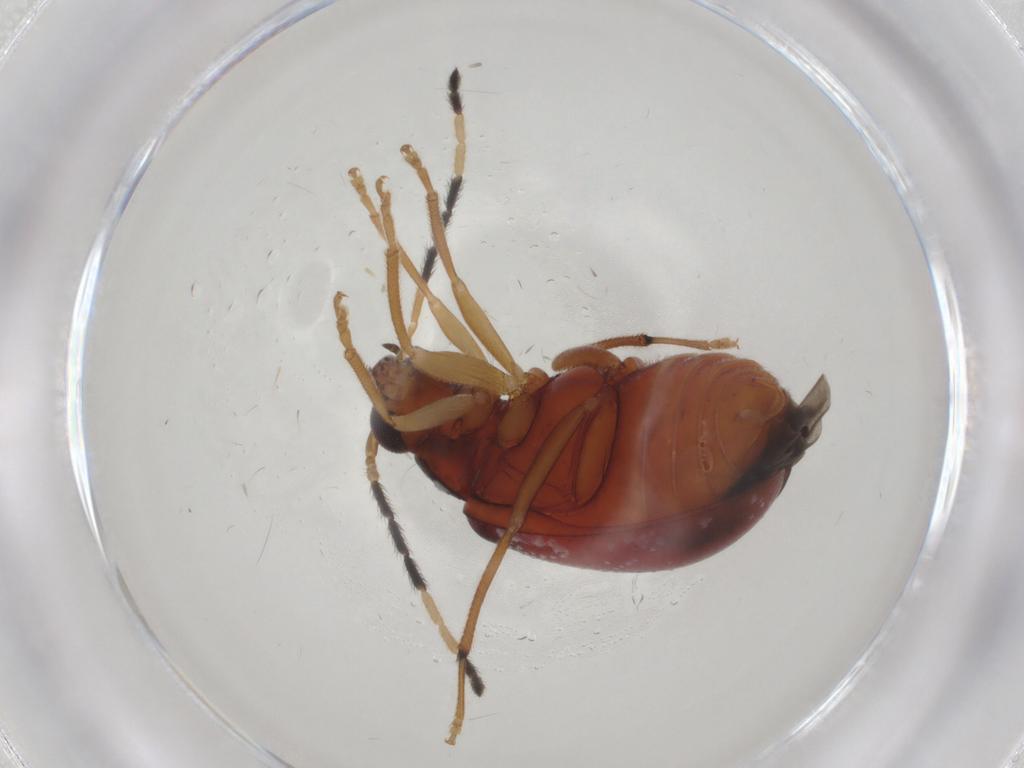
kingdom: Animalia
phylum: Arthropoda
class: Insecta
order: Coleoptera
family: Chrysomelidae
